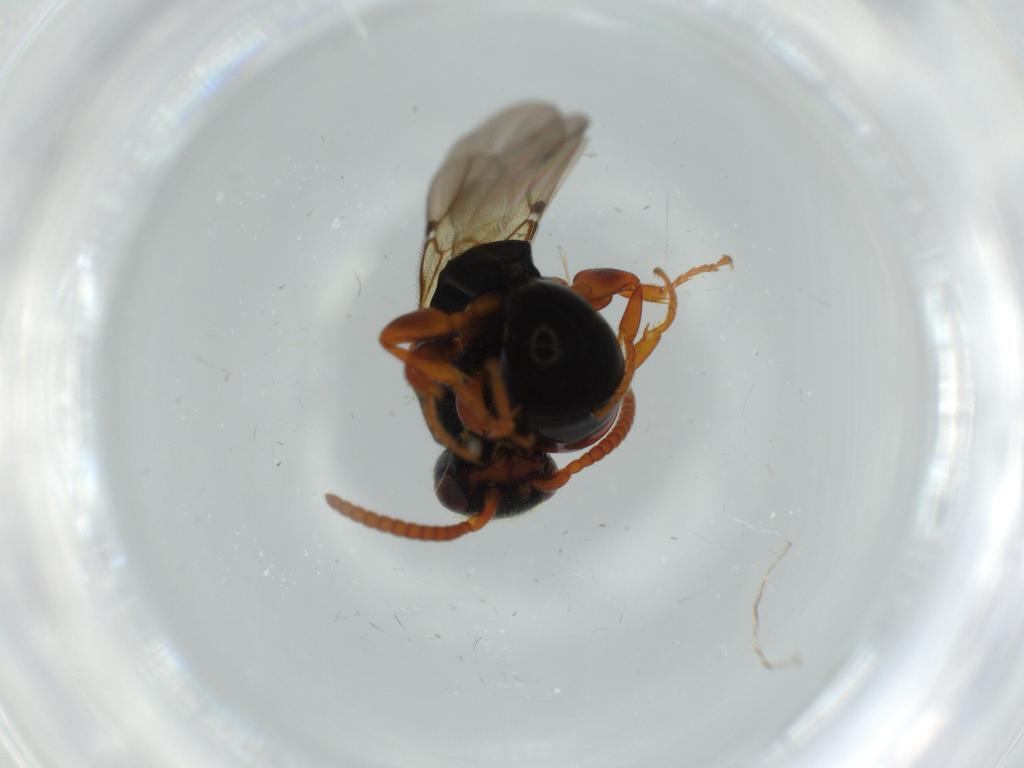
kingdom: Animalia
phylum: Arthropoda
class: Insecta
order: Hymenoptera
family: Bethylidae
